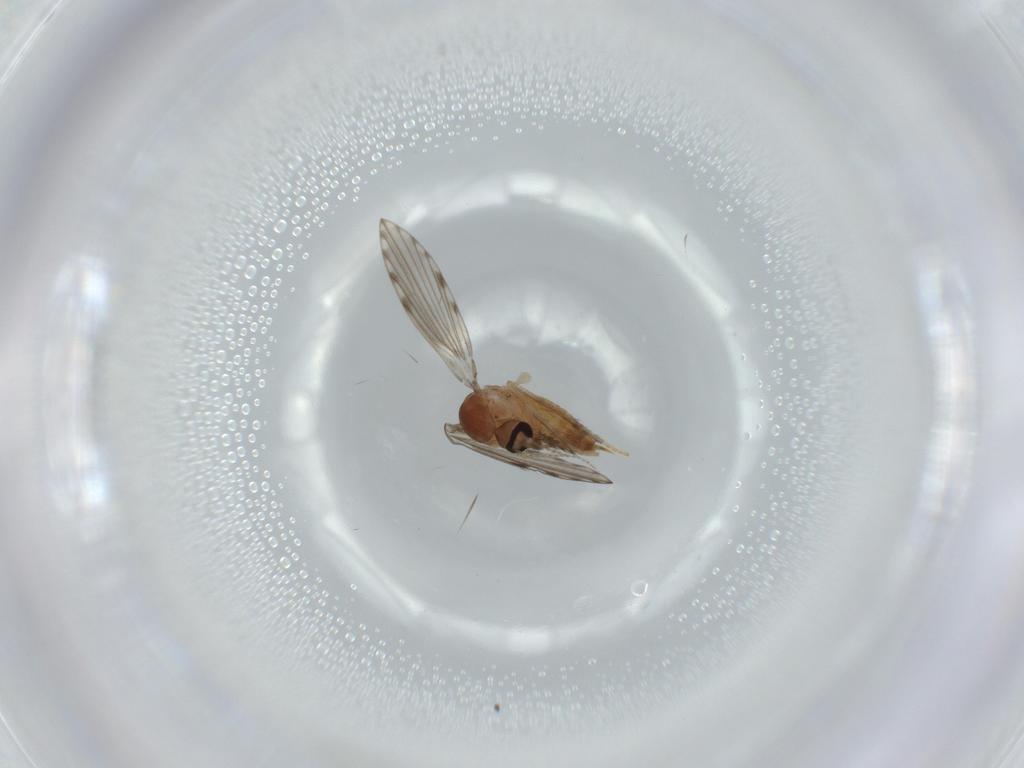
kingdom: Animalia
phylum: Arthropoda
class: Insecta
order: Diptera
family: Psychodidae
